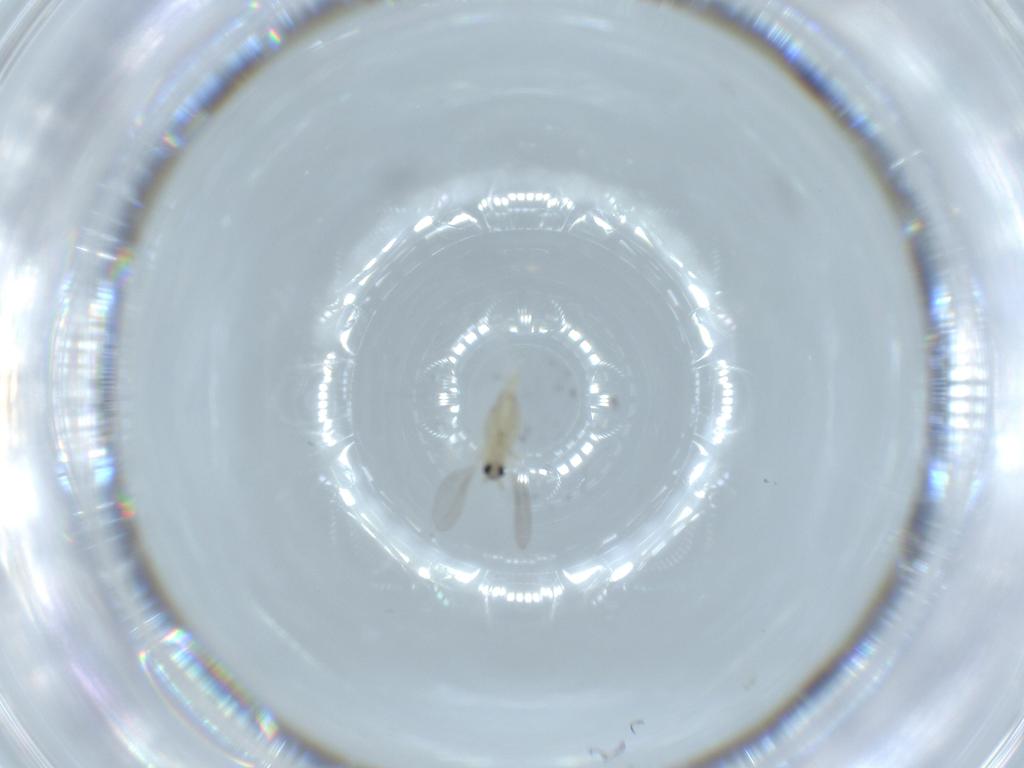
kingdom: Animalia
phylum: Arthropoda
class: Insecta
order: Diptera
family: Cecidomyiidae
